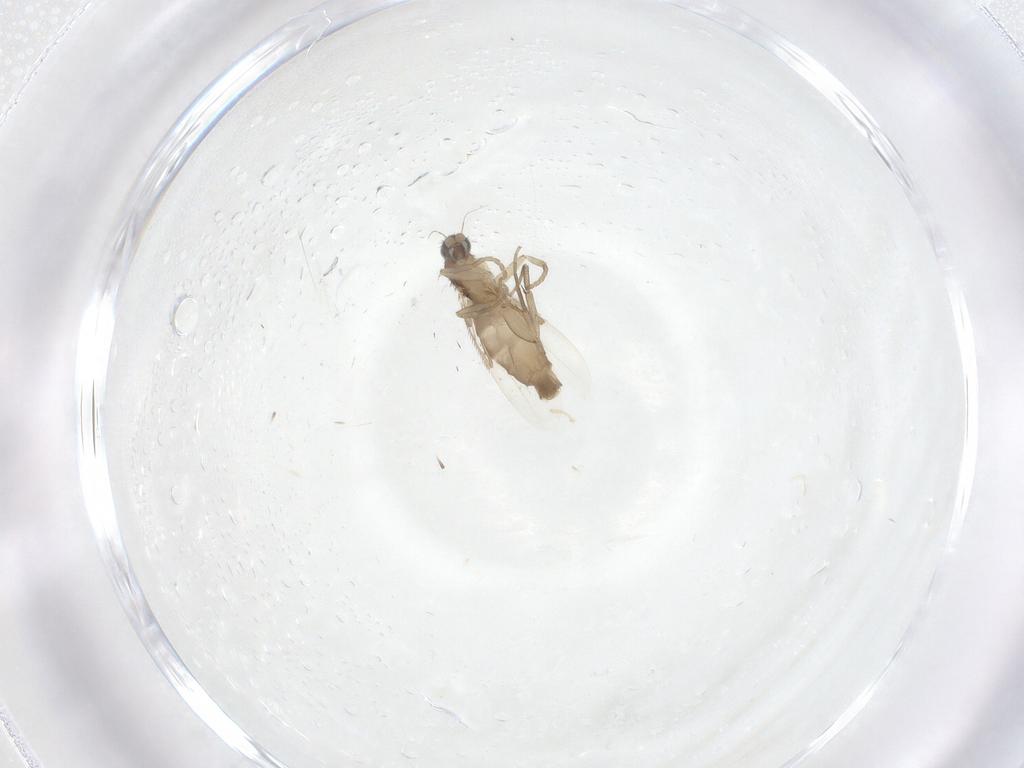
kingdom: Animalia
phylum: Arthropoda
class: Insecta
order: Diptera
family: Phoridae
